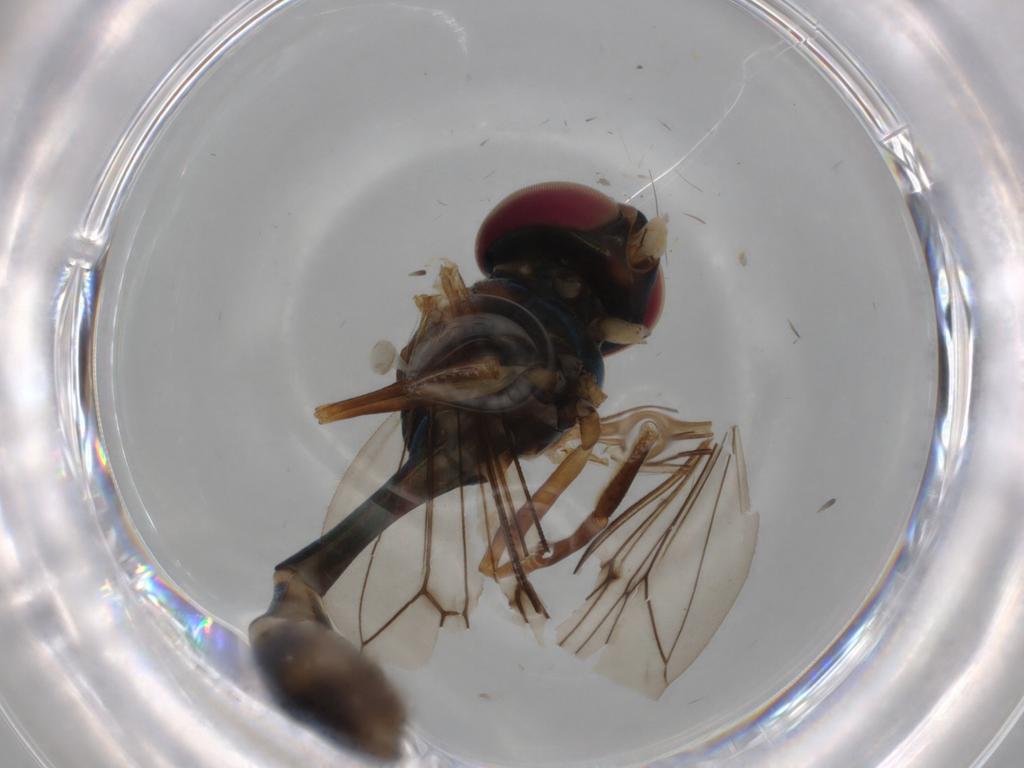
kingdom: Animalia
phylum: Arthropoda
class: Insecta
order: Diptera
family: Syrphidae
